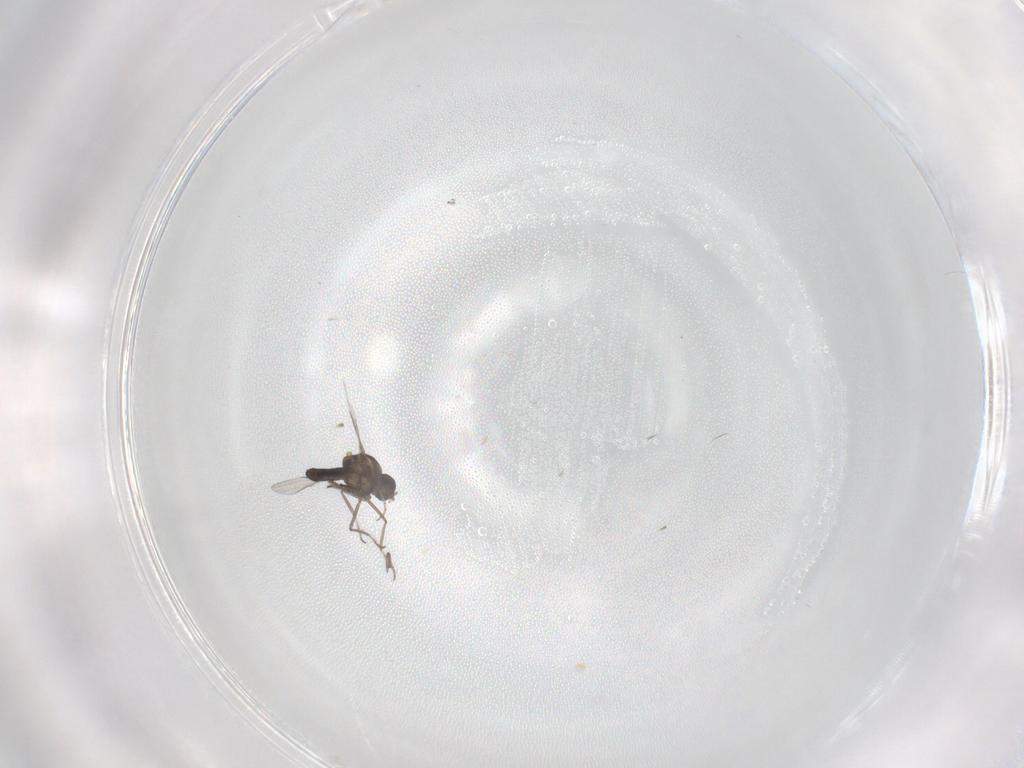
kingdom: Animalia
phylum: Arthropoda
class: Insecta
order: Diptera
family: Ceratopogonidae
